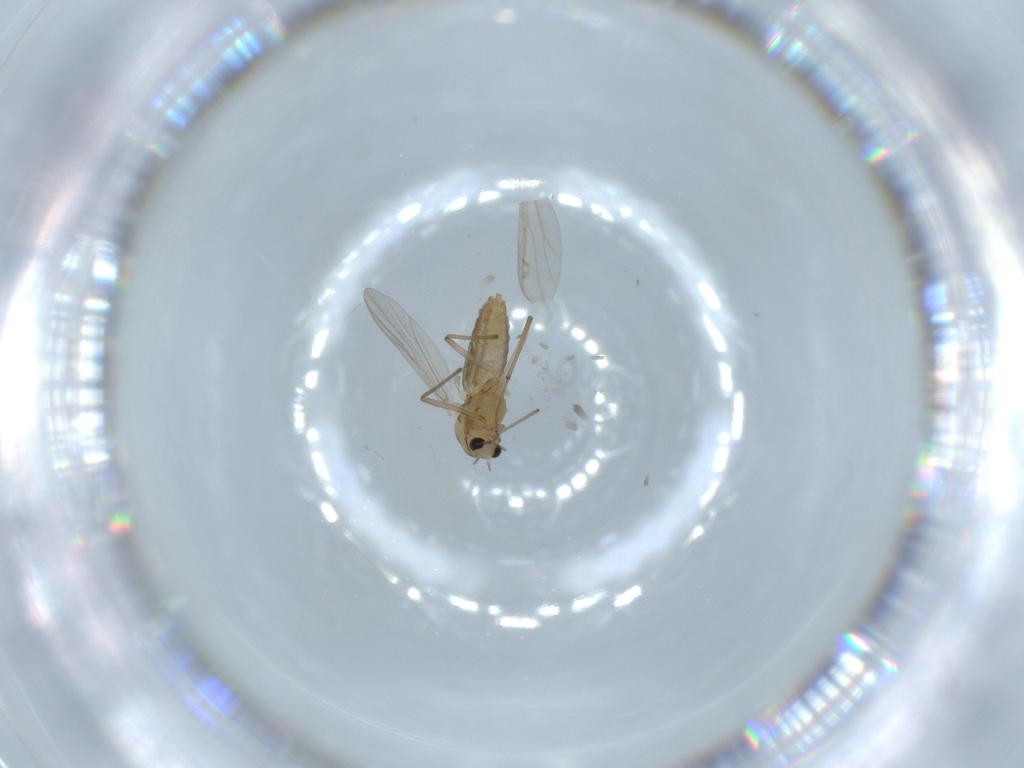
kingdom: Animalia
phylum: Arthropoda
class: Insecta
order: Diptera
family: Chironomidae
